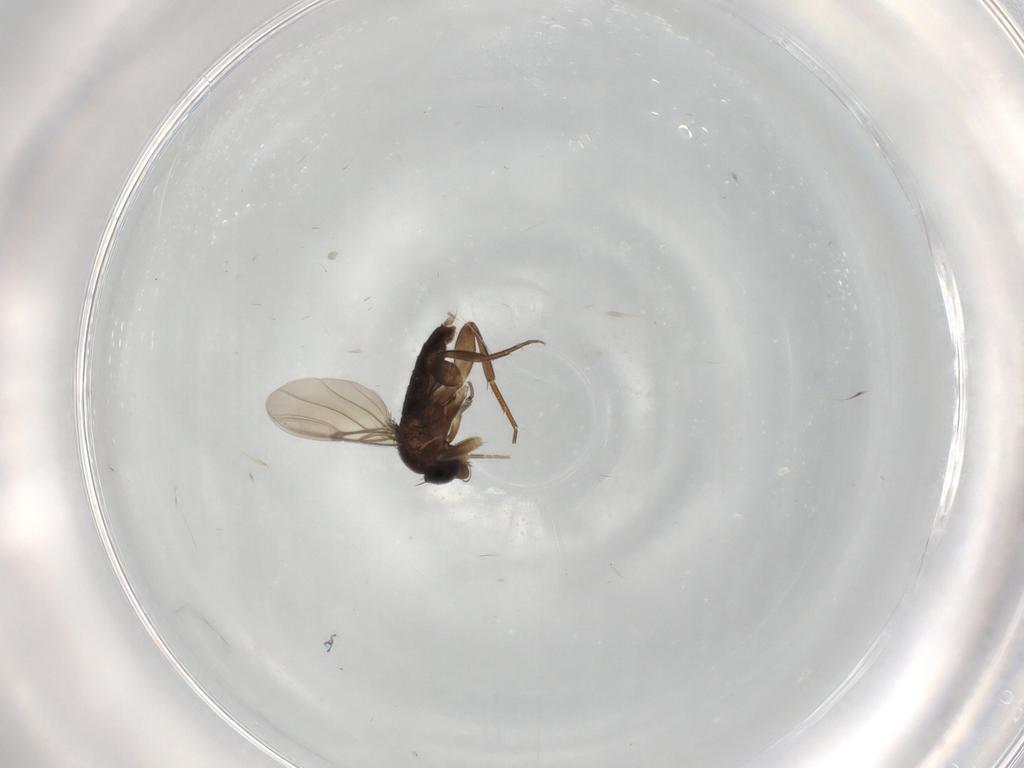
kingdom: Animalia
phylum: Arthropoda
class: Insecta
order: Diptera
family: Phoridae
